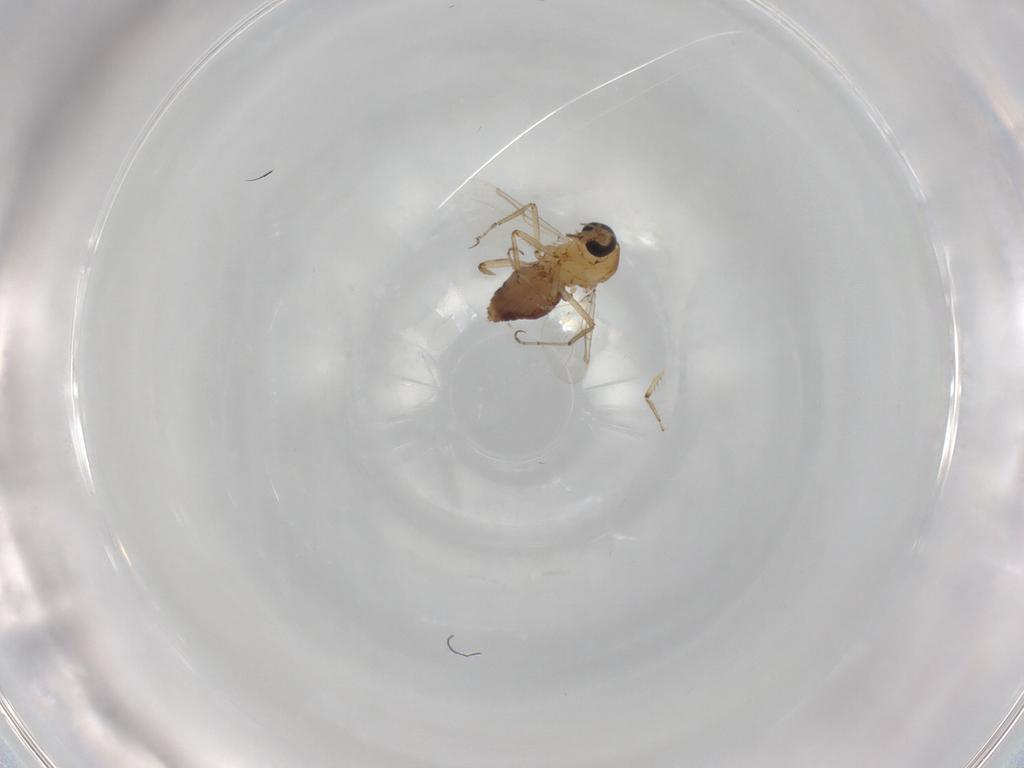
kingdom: Animalia
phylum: Arthropoda
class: Insecta
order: Diptera
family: Ceratopogonidae
